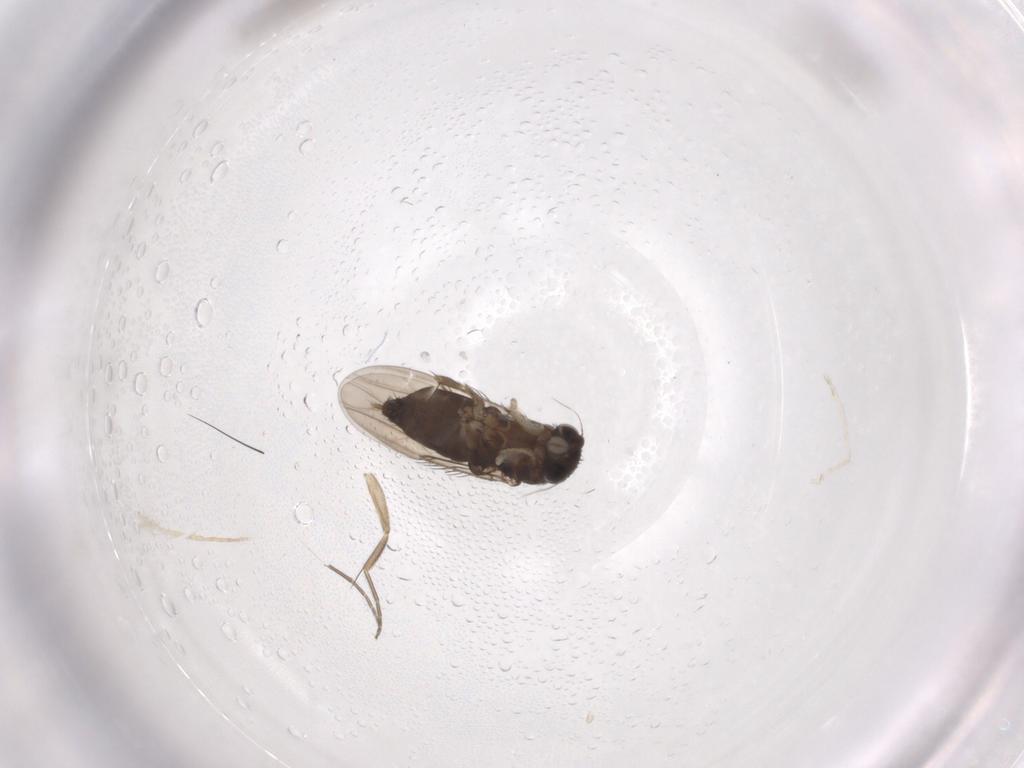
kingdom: Animalia
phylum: Arthropoda
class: Insecta
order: Diptera
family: Phoridae
